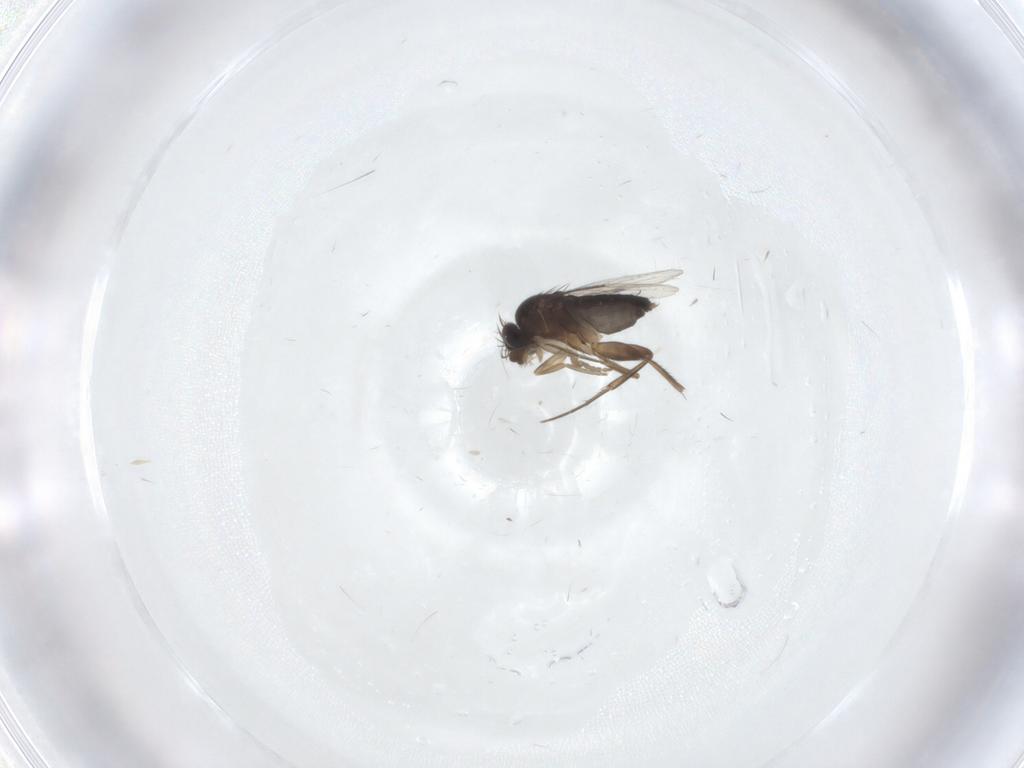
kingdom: Animalia
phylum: Arthropoda
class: Insecta
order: Diptera
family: Phoridae
